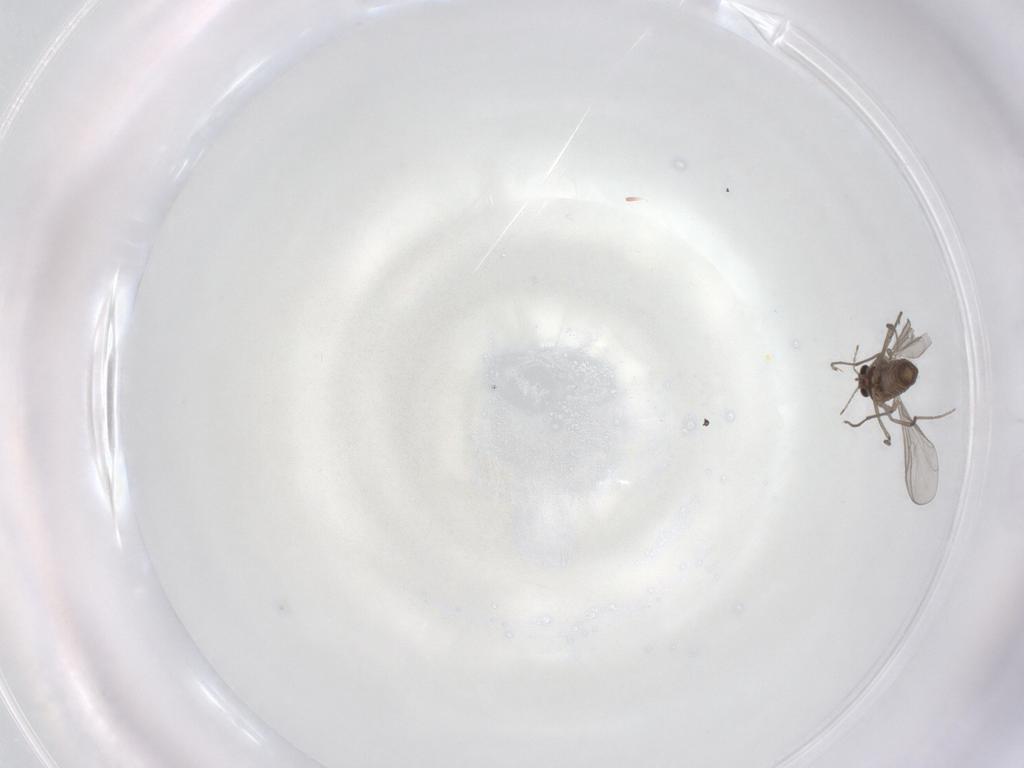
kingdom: Animalia
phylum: Arthropoda
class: Insecta
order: Diptera
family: Chironomidae
